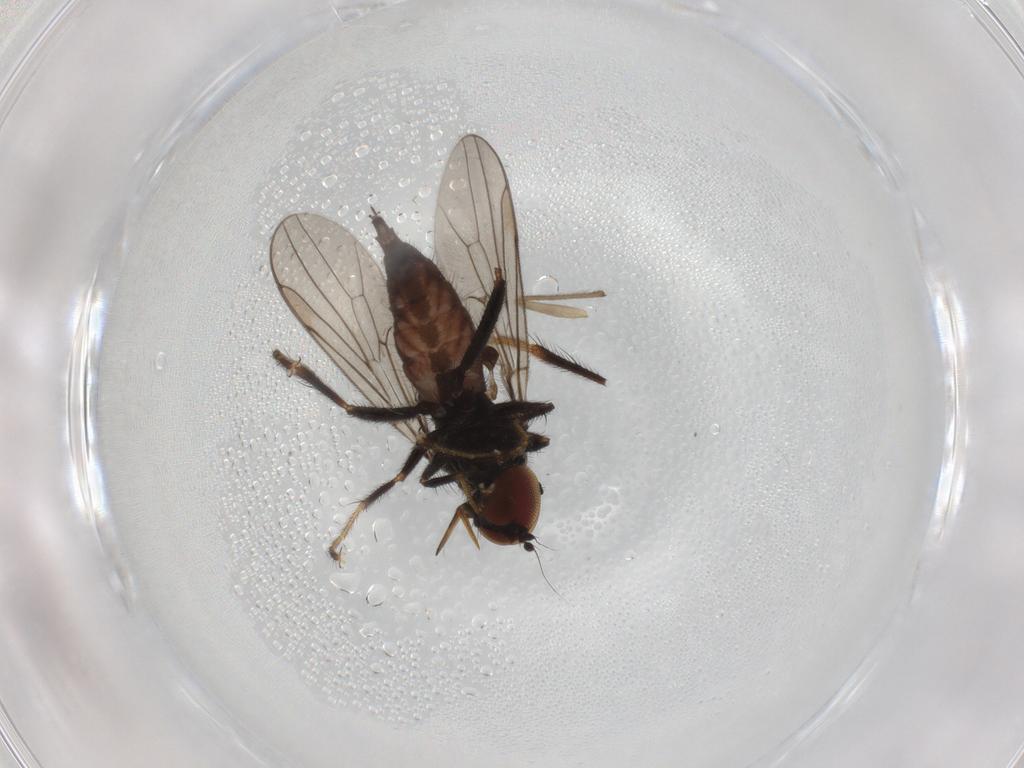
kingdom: Animalia
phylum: Arthropoda
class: Insecta
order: Diptera
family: Hybotidae
